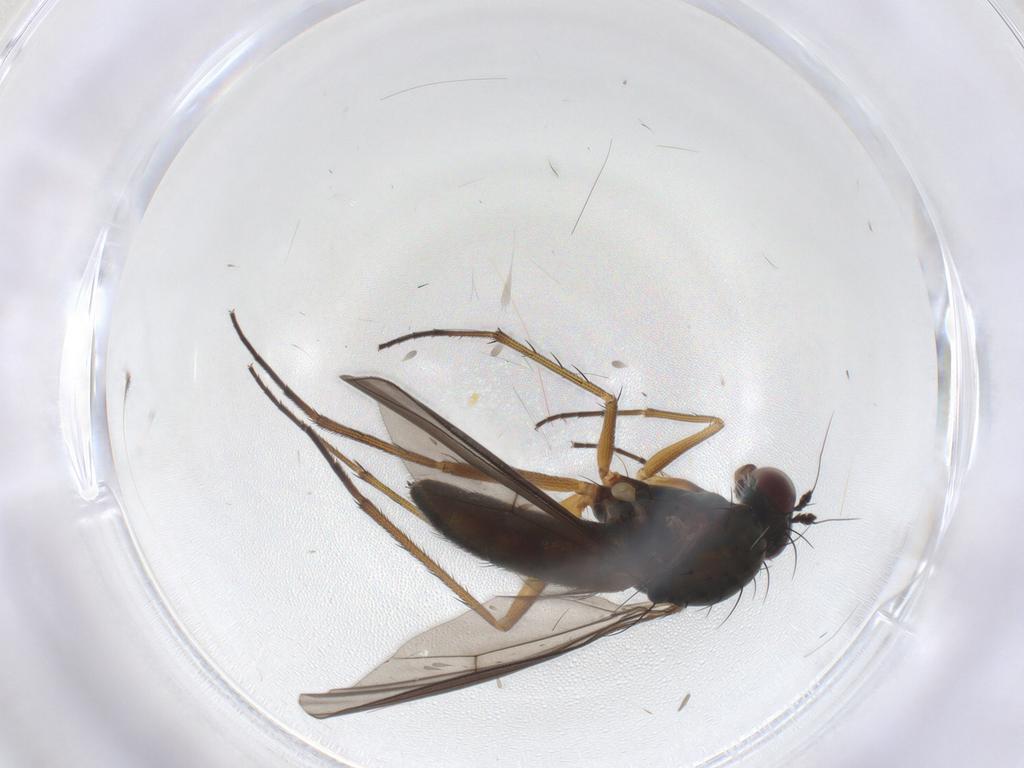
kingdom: Animalia
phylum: Arthropoda
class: Insecta
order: Diptera
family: Dolichopodidae
